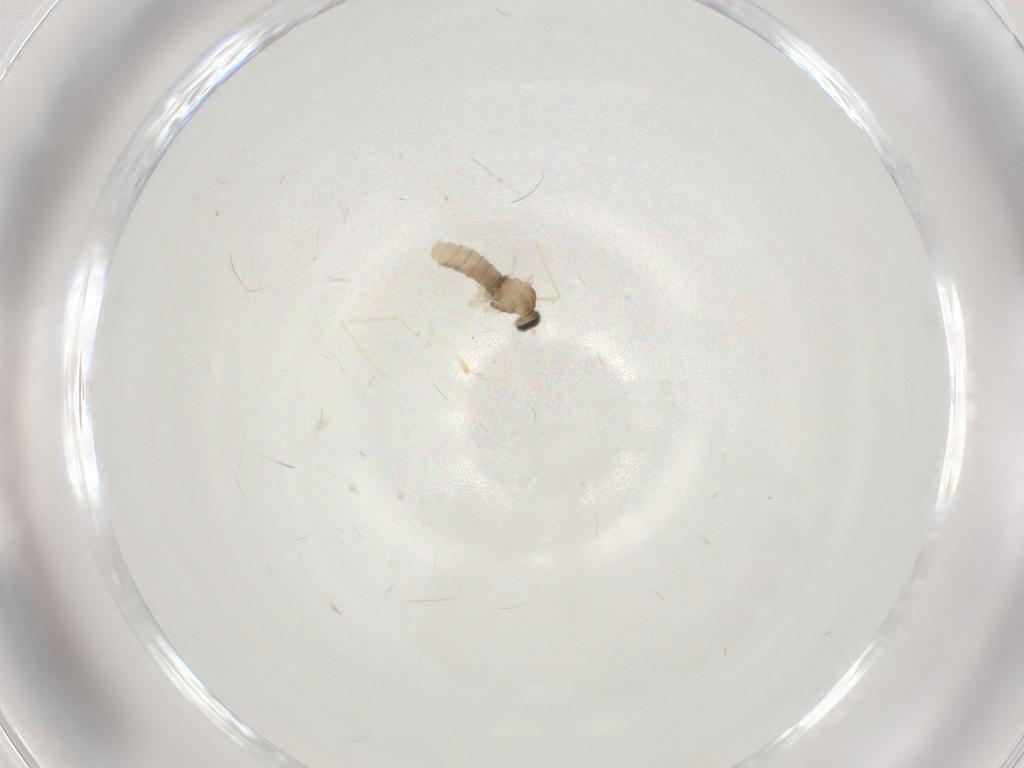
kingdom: Animalia
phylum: Arthropoda
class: Insecta
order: Diptera
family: Cecidomyiidae
